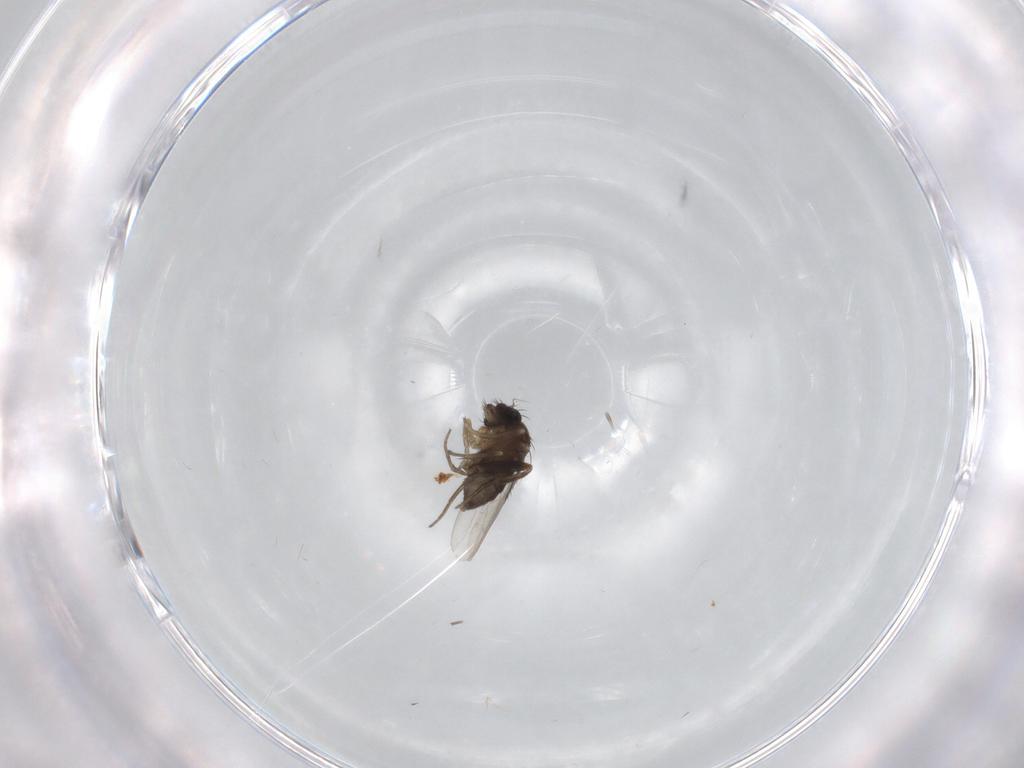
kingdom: Animalia
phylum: Arthropoda
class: Insecta
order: Diptera
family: Phoridae
